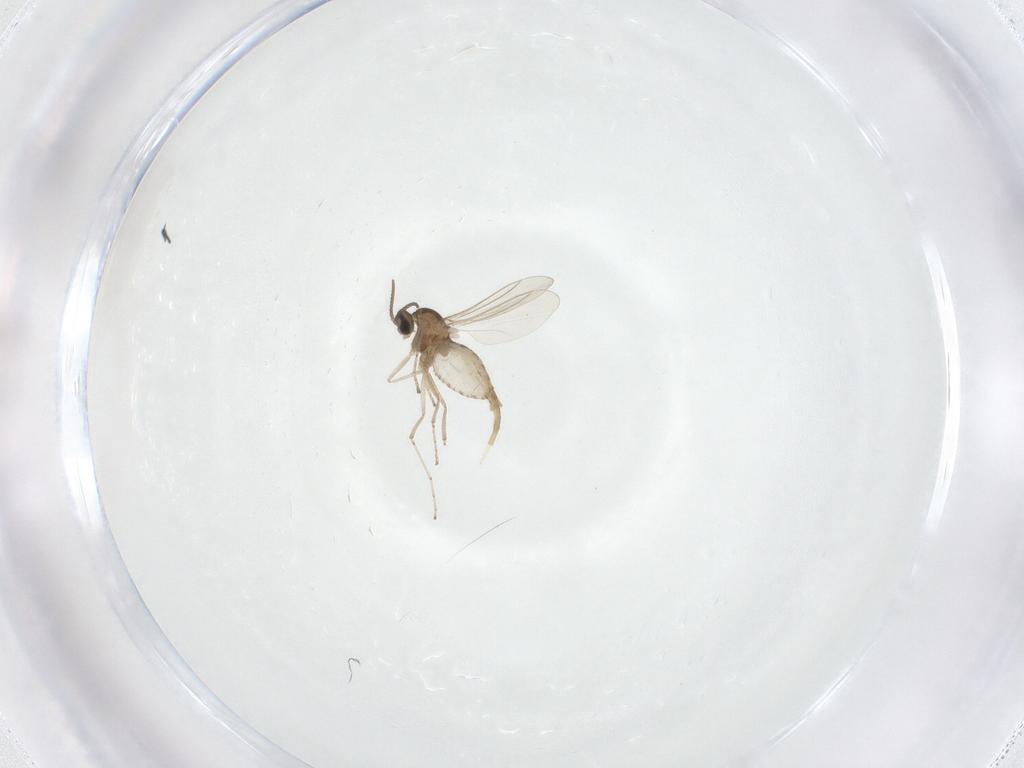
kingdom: Animalia
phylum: Arthropoda
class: Insecta
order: Diptera
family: Cecidomyiidae
